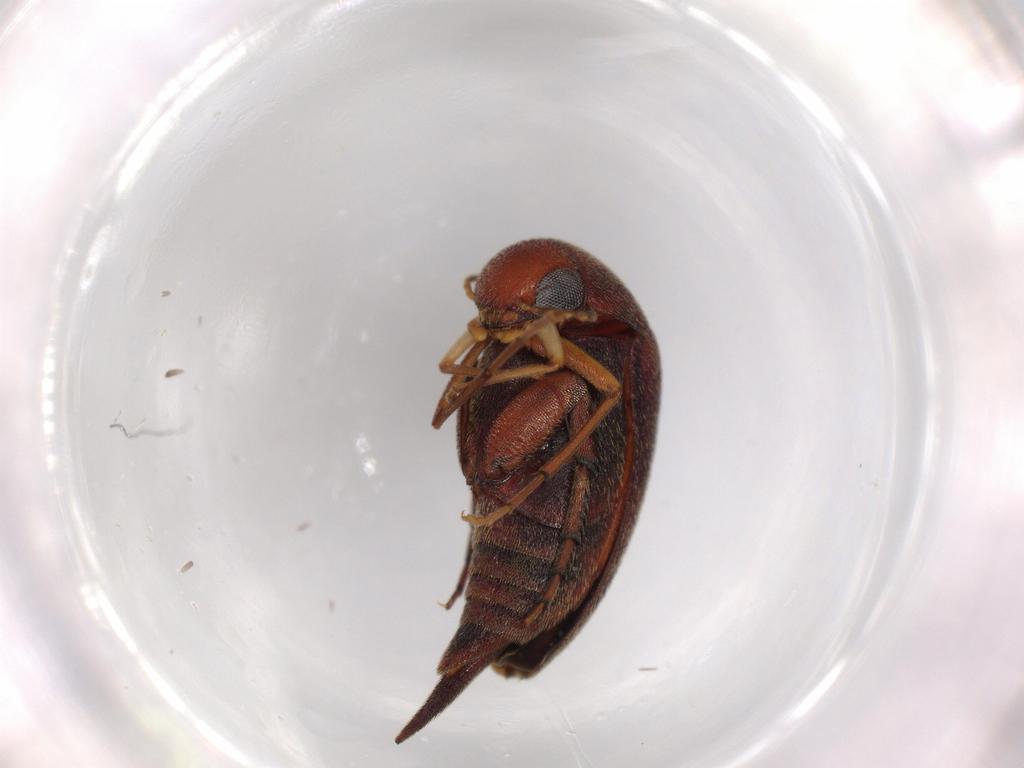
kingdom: Animalia
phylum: Arthropoda
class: Insecta
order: Coleoptera
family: Mordellidae
